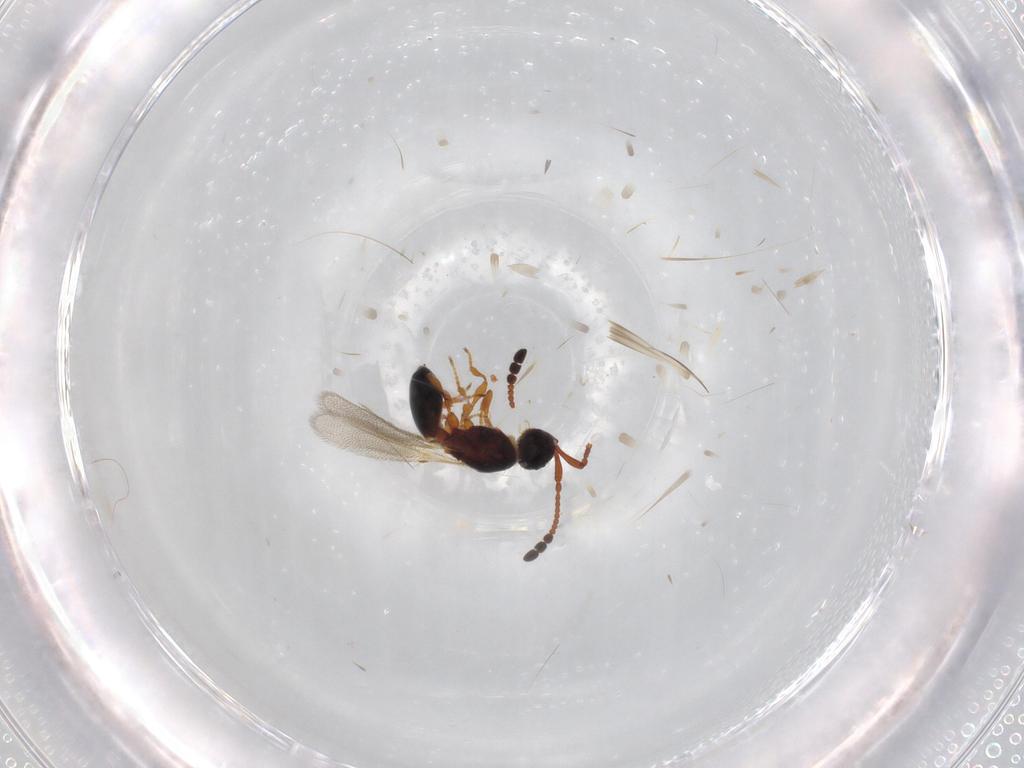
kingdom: Animalia
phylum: Arthropoda
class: Insecta
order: Hymenoptera
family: Diapriidae
